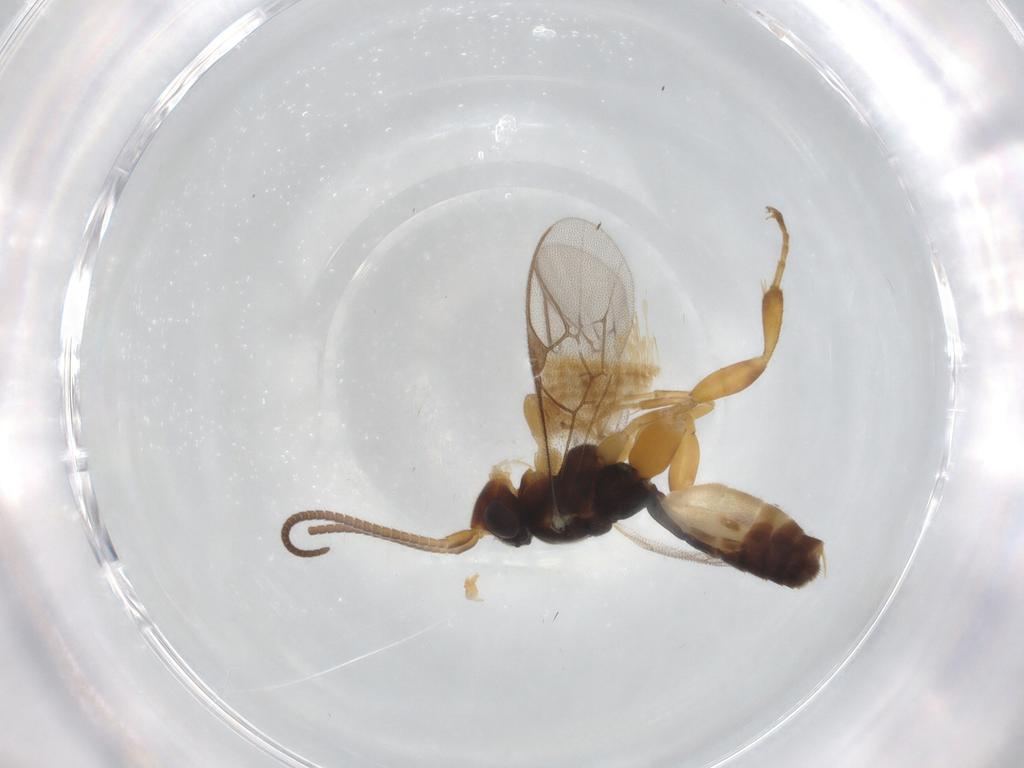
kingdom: Animalia
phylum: Arthropoda
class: Insecta
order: Hymenoptera
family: Ichneumonidae
